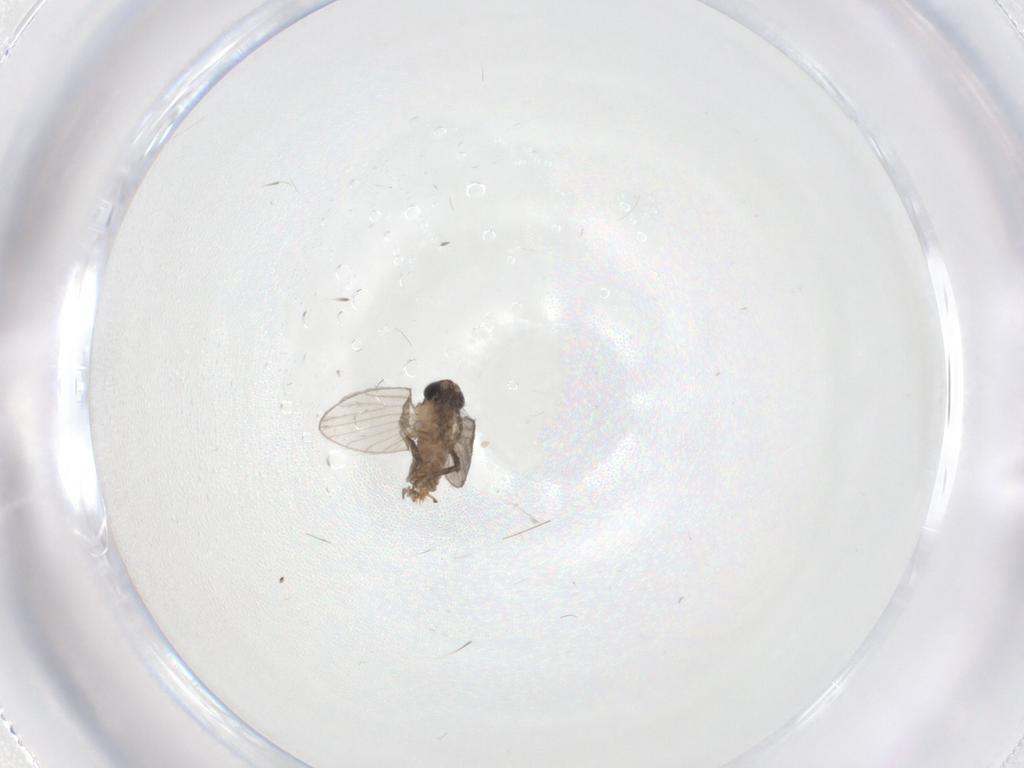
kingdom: Animalia
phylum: Arthropoda
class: Insecta
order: Diptera
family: Psychodidae
